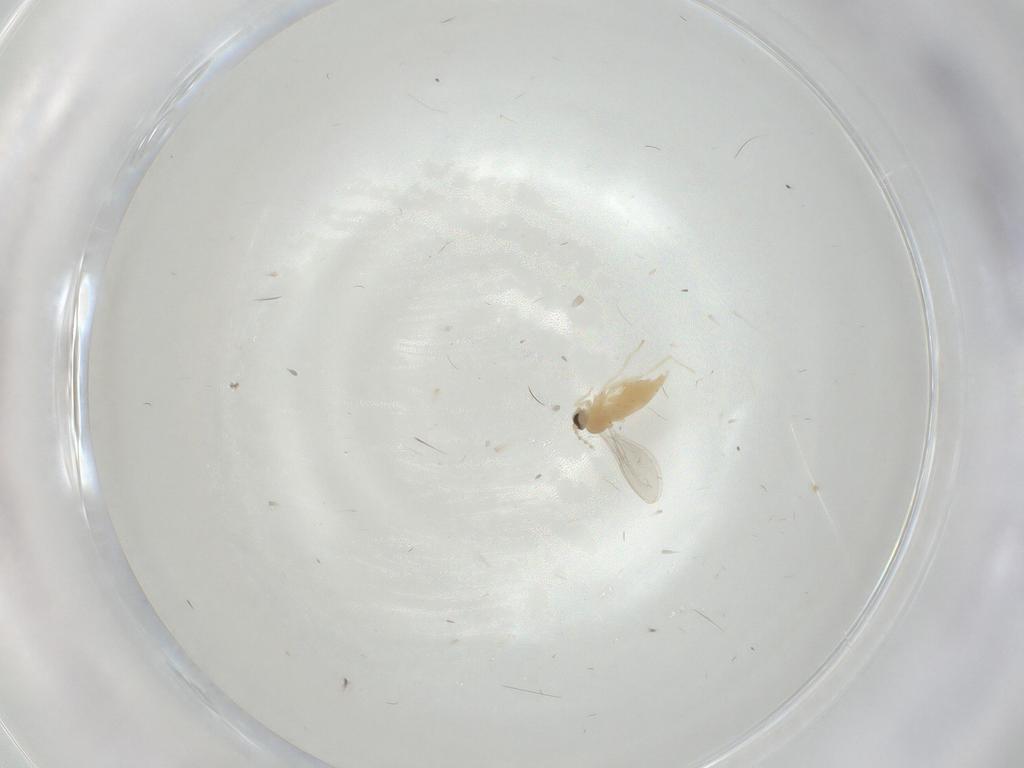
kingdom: Animalia
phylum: Arthropoda
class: Insecta
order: Diptera
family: Cecidomyiidae
